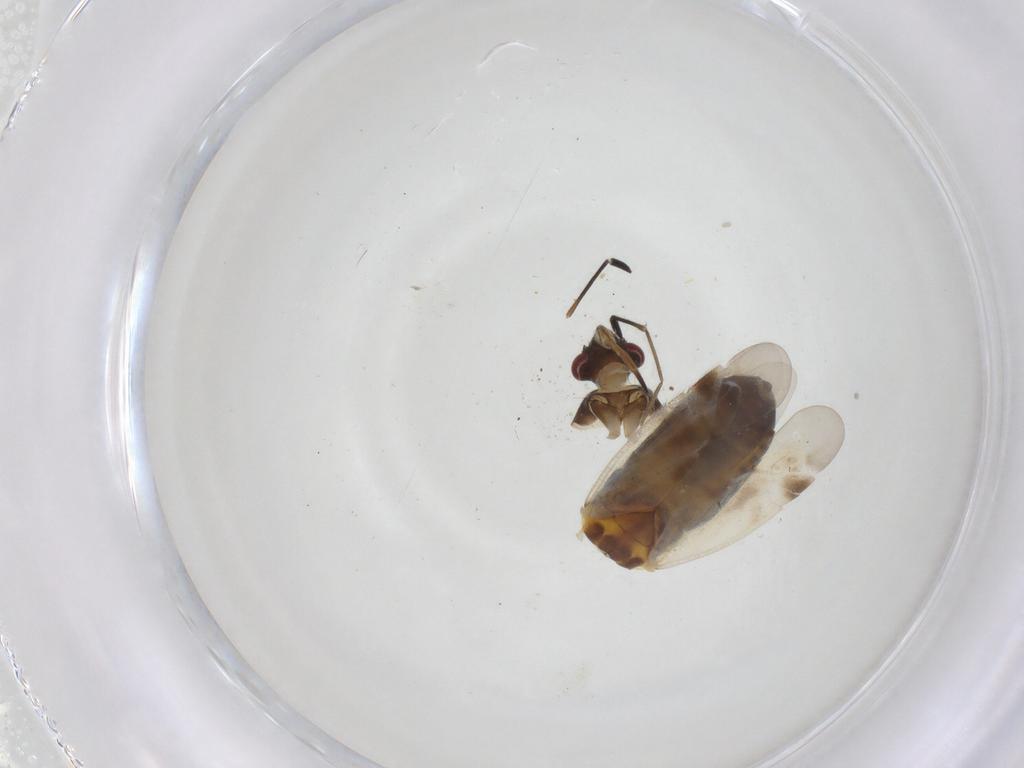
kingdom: Animalia
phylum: Arthropoda
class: Insecta
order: Hemiptera
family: Miridae
